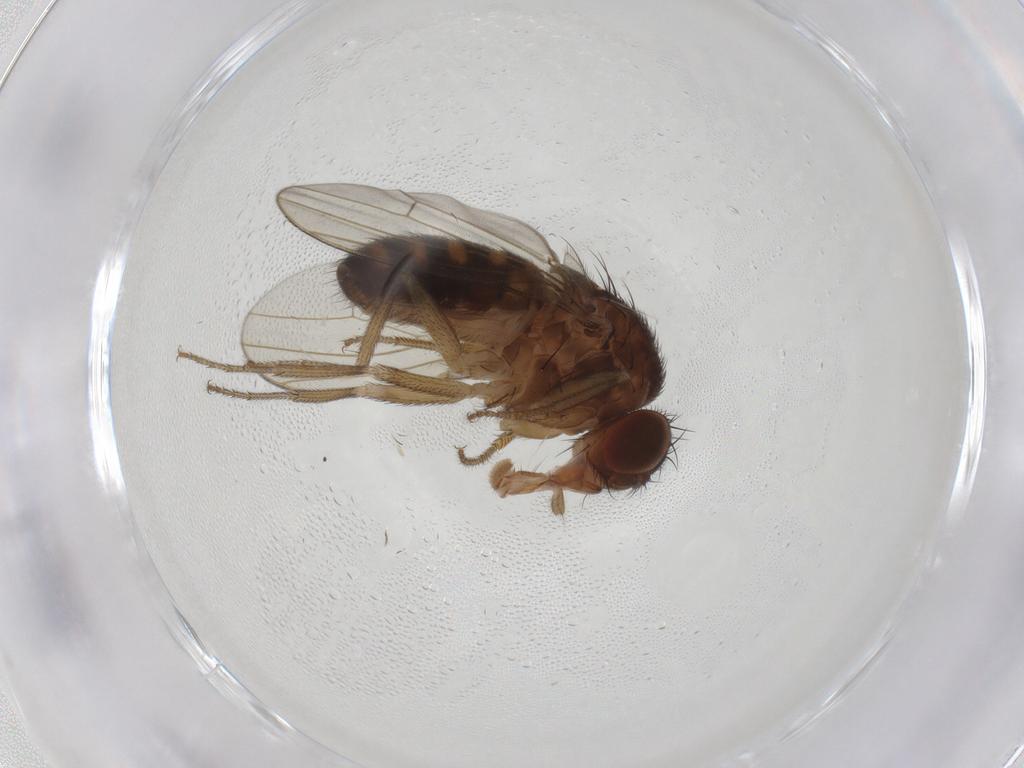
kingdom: Animalia
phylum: Arthropoda
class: Insecta
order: Diptera
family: Drosophilidae
